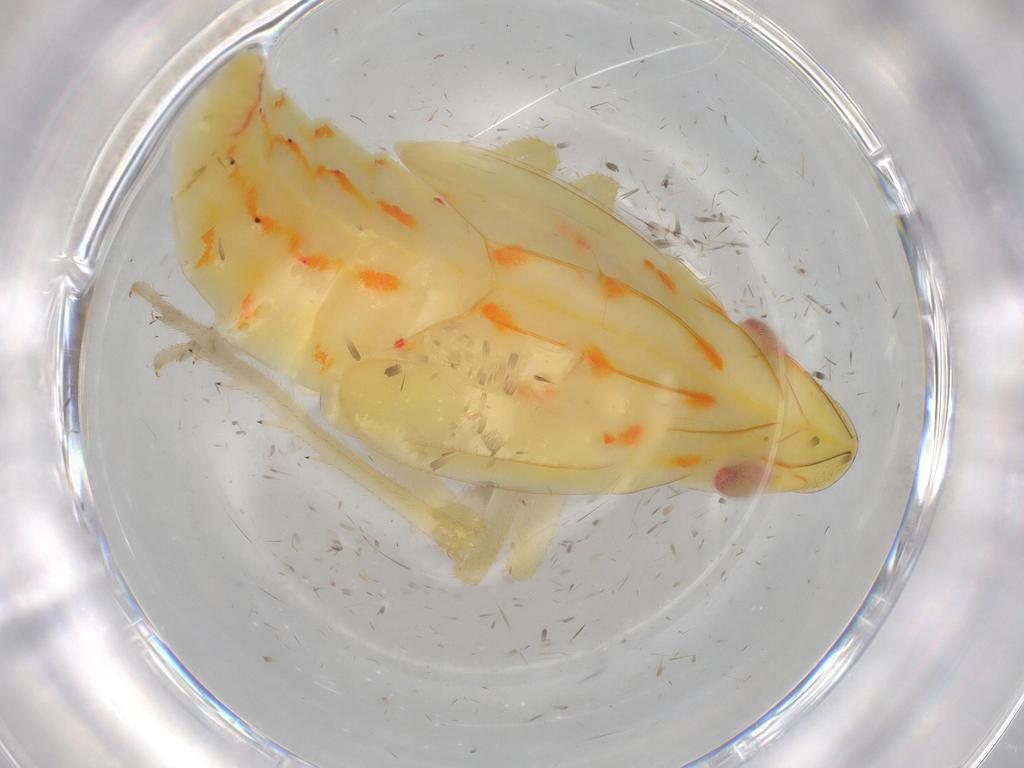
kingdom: Animalia
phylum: Arthropoda
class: Insecta
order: Hemiptera
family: Tropiduchidae
